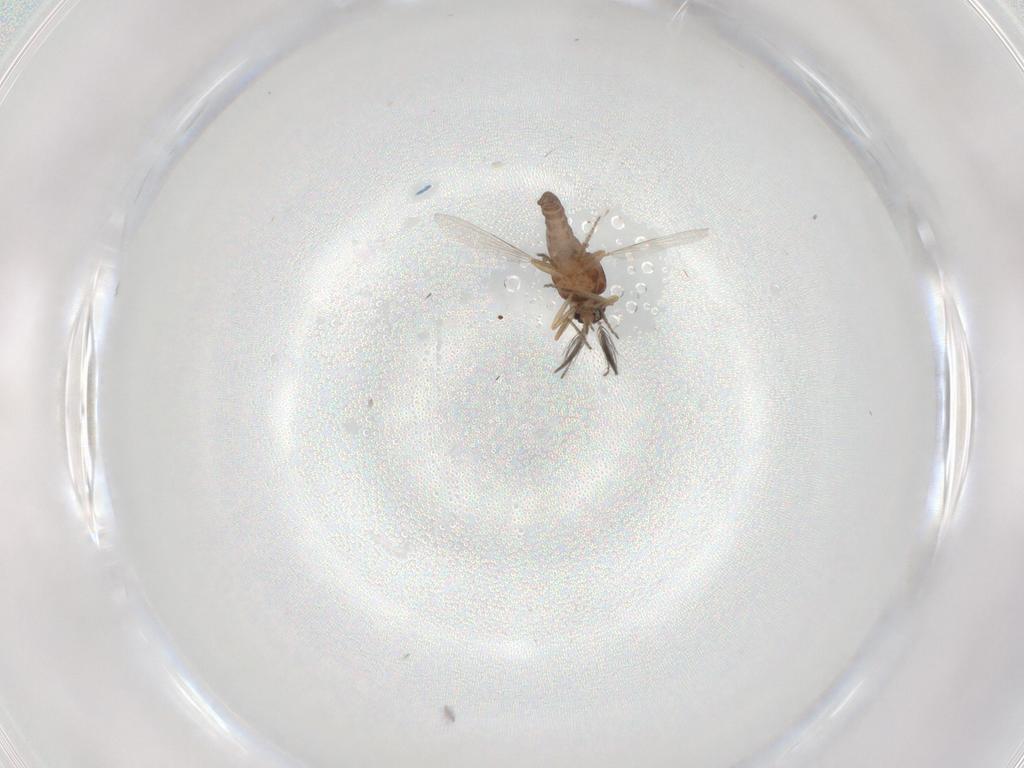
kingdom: Animalia
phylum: Arthropoda
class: Insecta
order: Diptera
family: Ceratopogonidae
